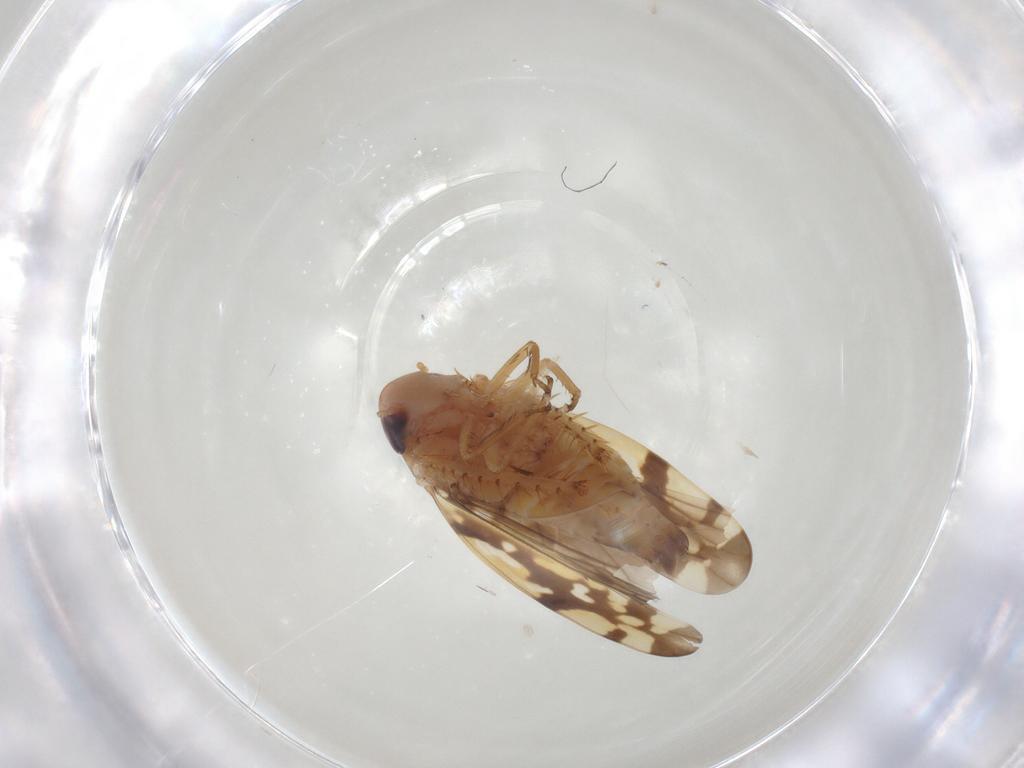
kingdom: Animalia
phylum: Arthropoda
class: Insecta
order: Hemiptera
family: Cicadellidae
